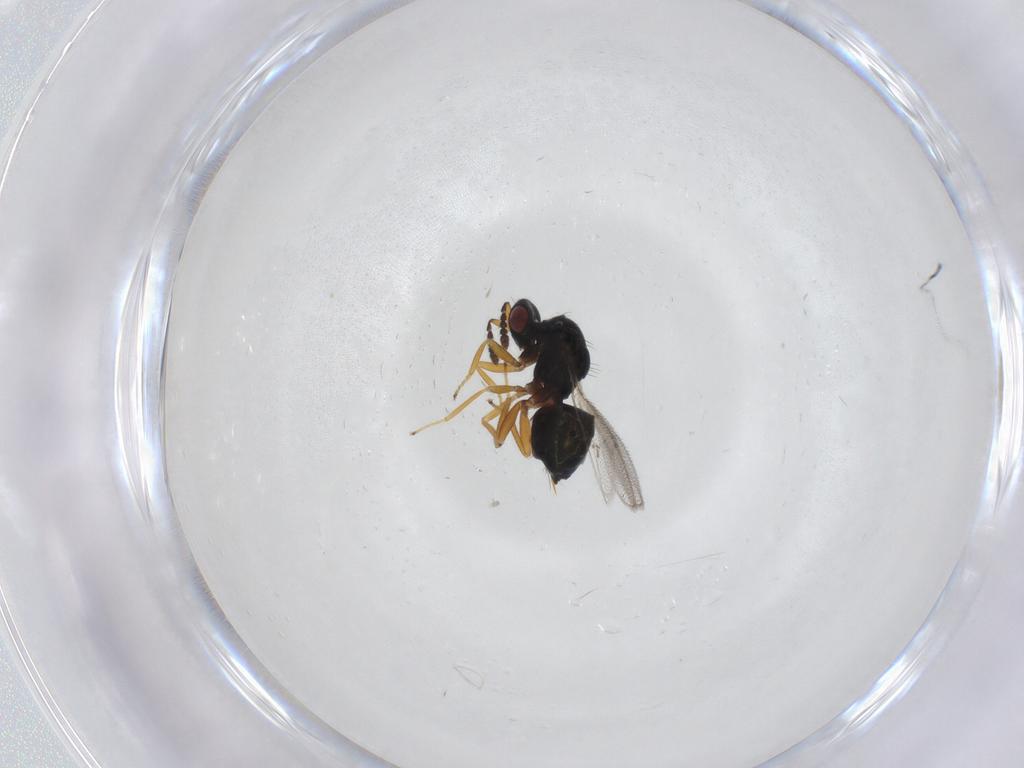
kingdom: Animalia
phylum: Arthropoda
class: Insecta
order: Hymenoptera
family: Eulophidae
